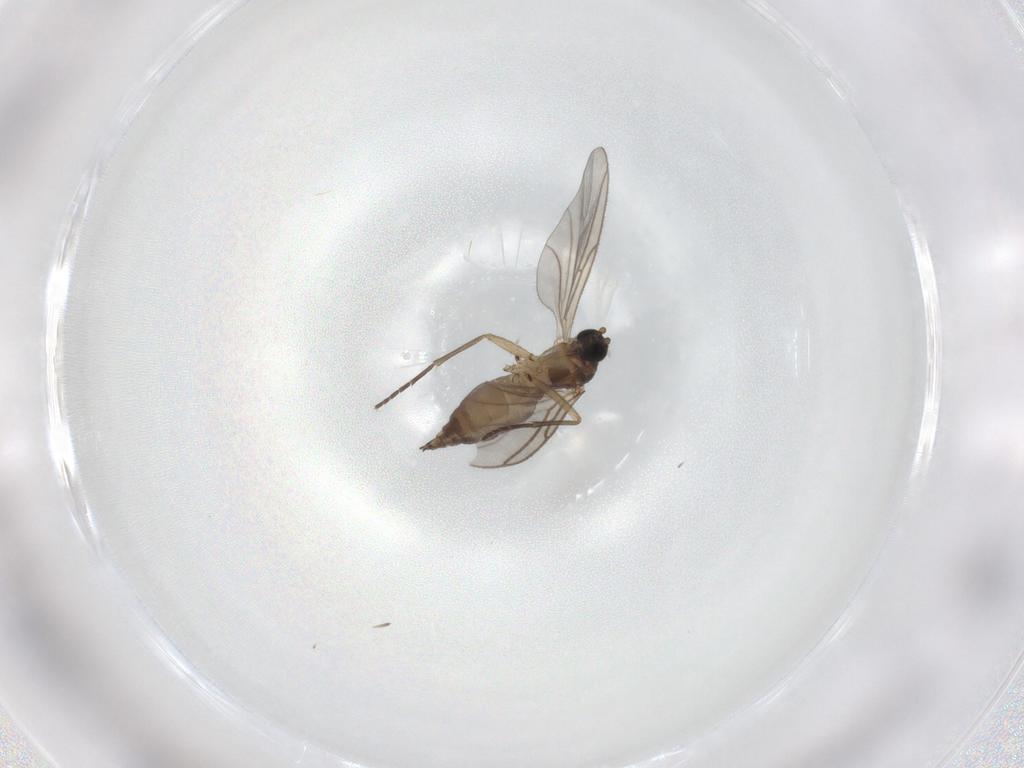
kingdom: Animalia
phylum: Arthropoda
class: Insecta
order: Diptera
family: Sciaridae
